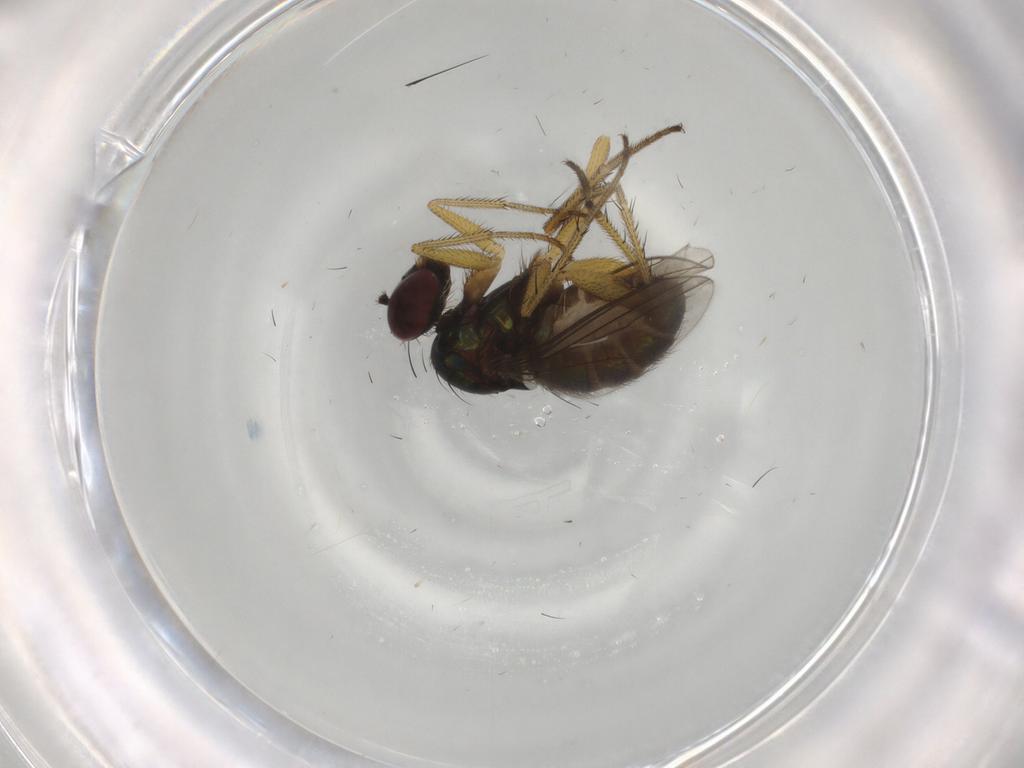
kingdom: Animalia
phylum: Arthropoda
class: Insecta
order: Diptera
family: Dolichopodidae
